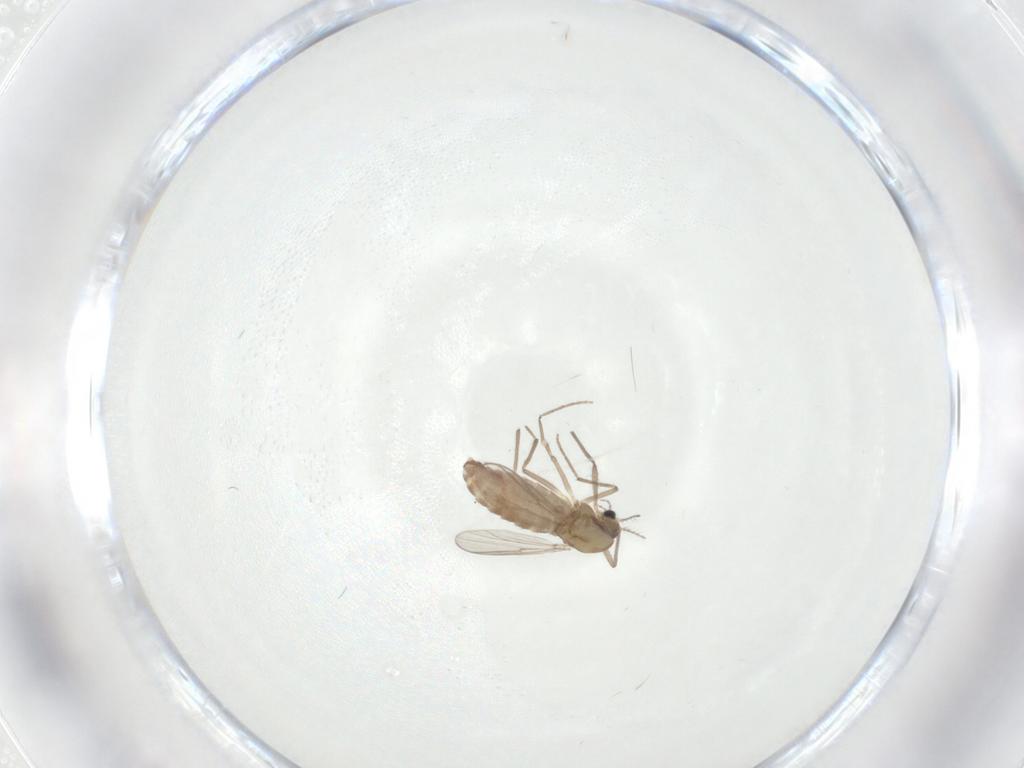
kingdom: Animalia
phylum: Arthropoda
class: Insecta
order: Diptera
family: Chironomidae
